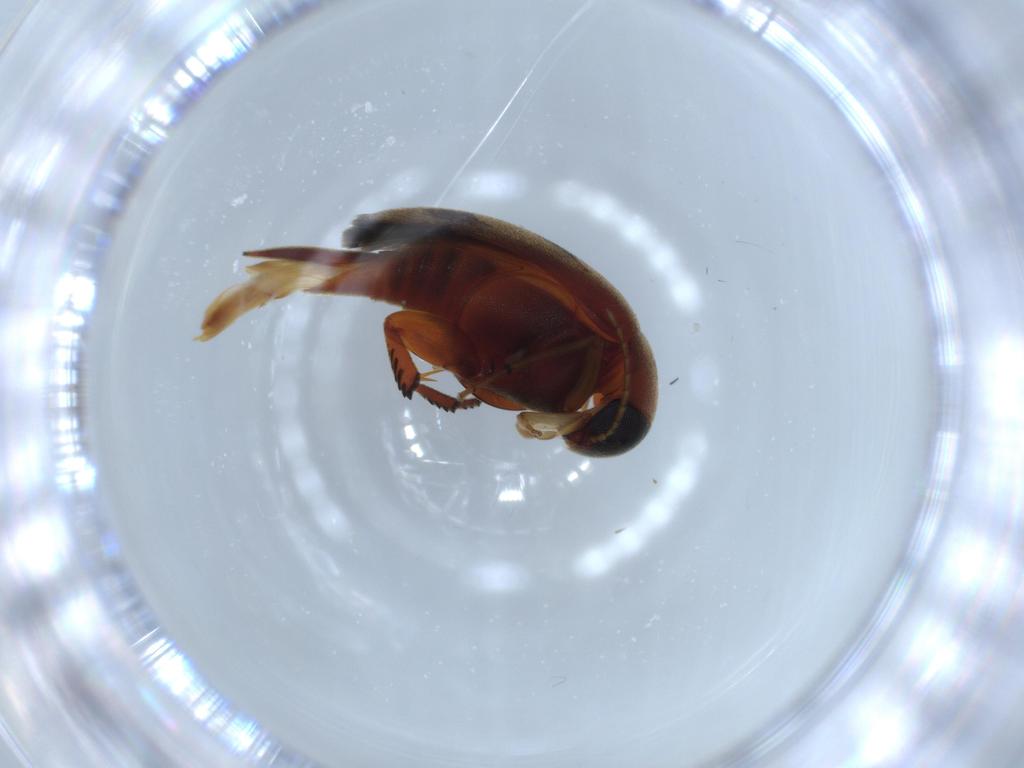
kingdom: Animalia
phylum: Arthropoda
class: Insecta
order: Coleoptera
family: Mordellidae
